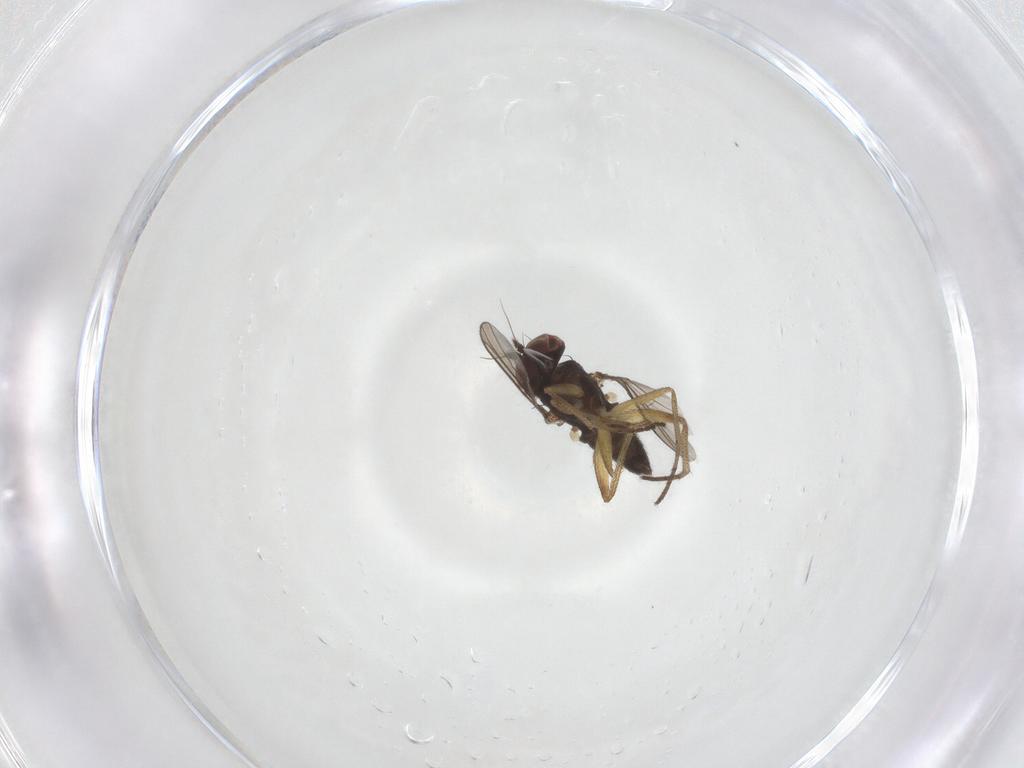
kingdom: Animalia
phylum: Arthropoda
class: Insecta
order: Diptera
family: Dolichopodidae
